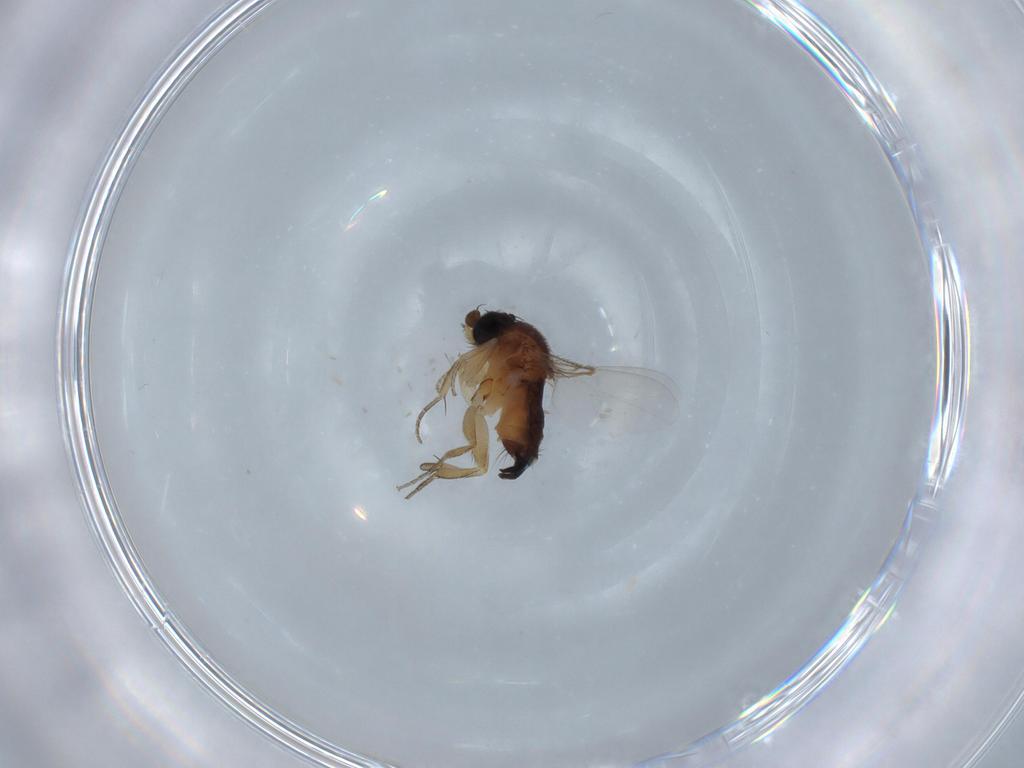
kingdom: Animalia
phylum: Arthropoda
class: Insecta
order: Diptera
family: Phoridae
